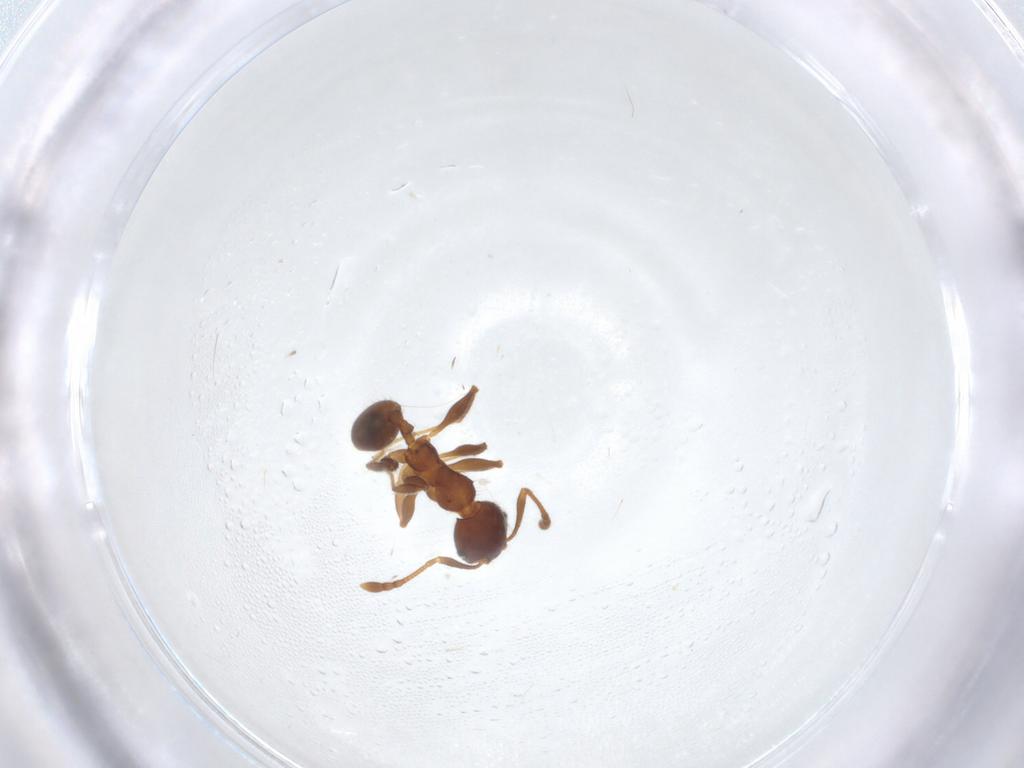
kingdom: Animalia
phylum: Arthropoda
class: Insecta
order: Hymenoptera
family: Formicidae
